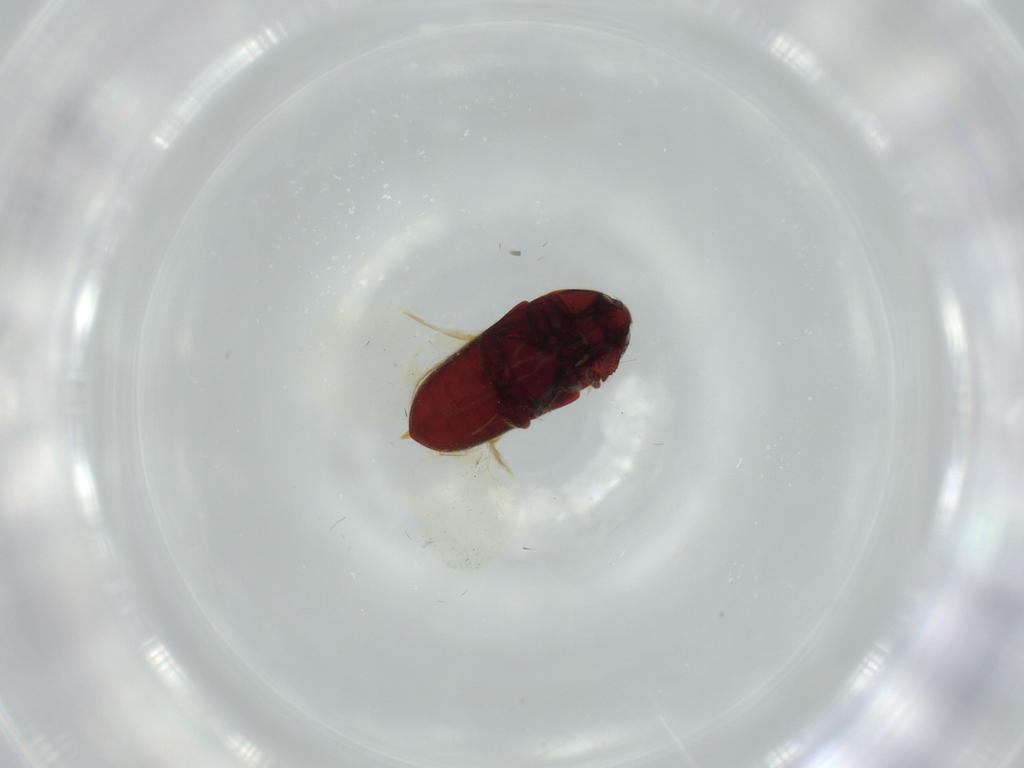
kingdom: Animalia
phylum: Arthropoda
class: Insecta
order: Coleoptera
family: Throscidae
